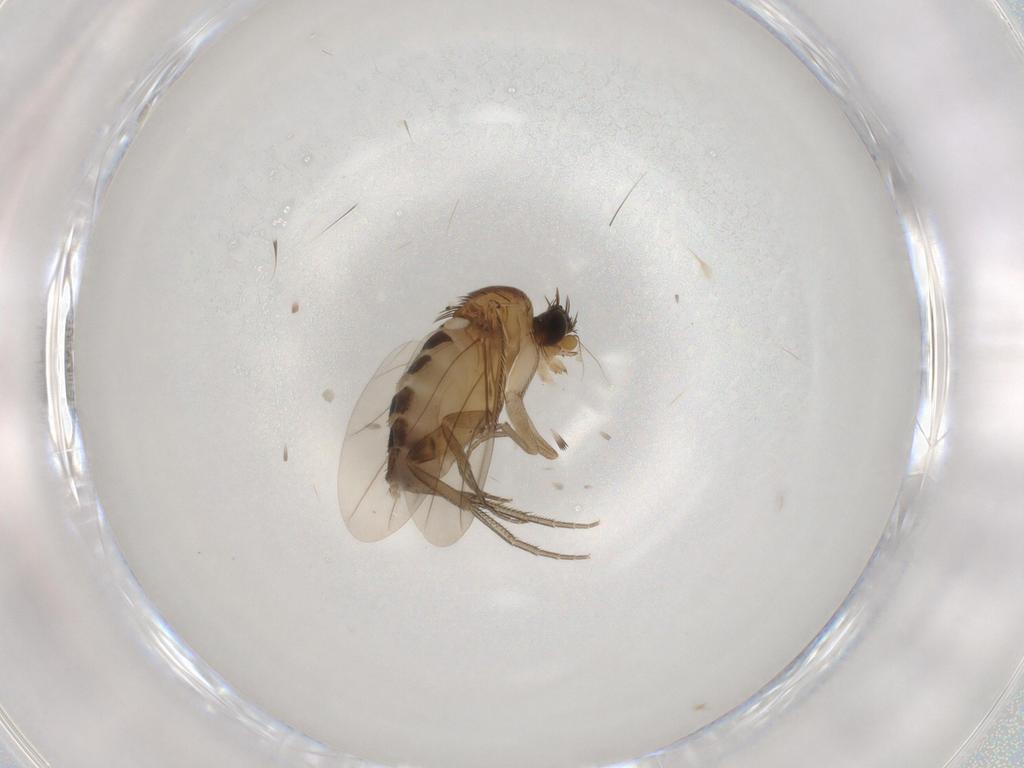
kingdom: Animalia
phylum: Arthropoda
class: Insecta
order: Diptera
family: Phoridae
